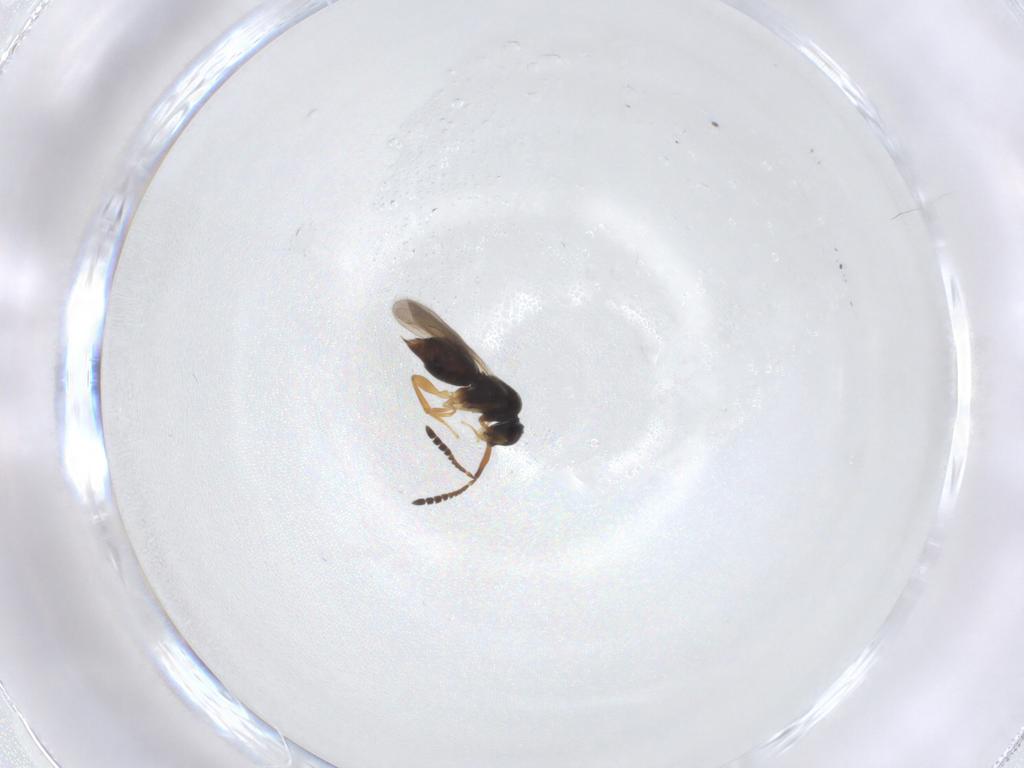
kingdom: Animalia
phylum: Arthropoda
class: Insecta
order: Hymenoptera
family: Ceraphronidae
